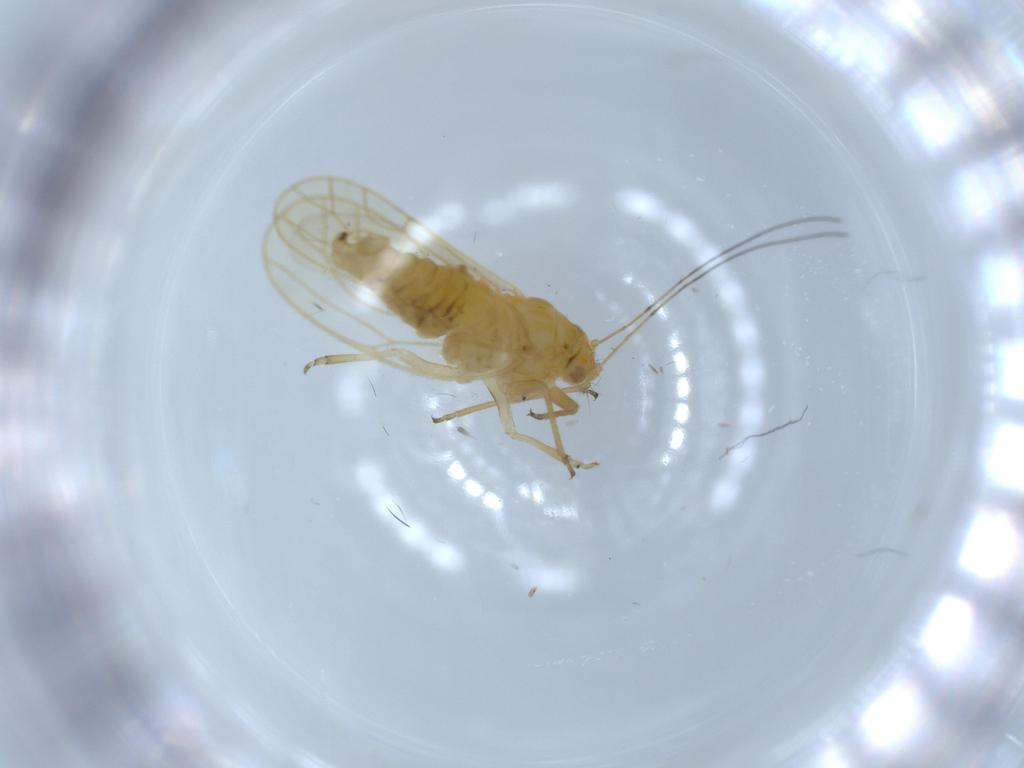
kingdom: Animalia
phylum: Arthropoda
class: Insecta
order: Hemiptera
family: Psyllidae
